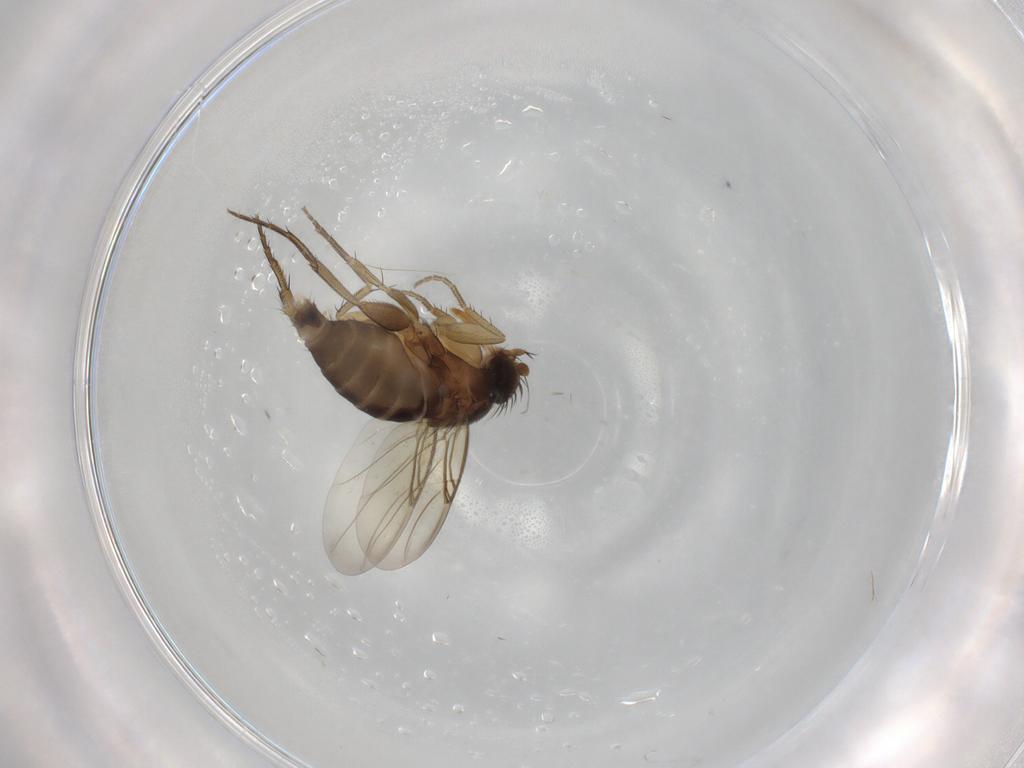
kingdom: Animalia
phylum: Arthropoda
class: Insecta
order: Diptera
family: Phoridae
